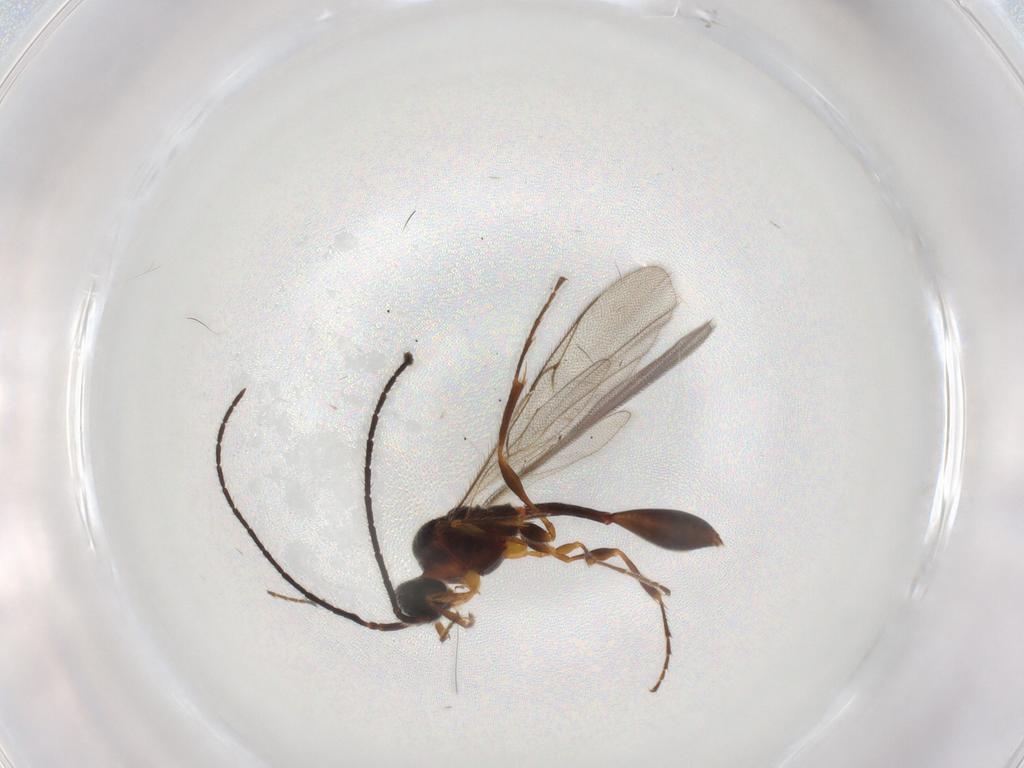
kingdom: Animalia
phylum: Arthropoda
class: Insecta
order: Hymenoptera
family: Diapriidae
